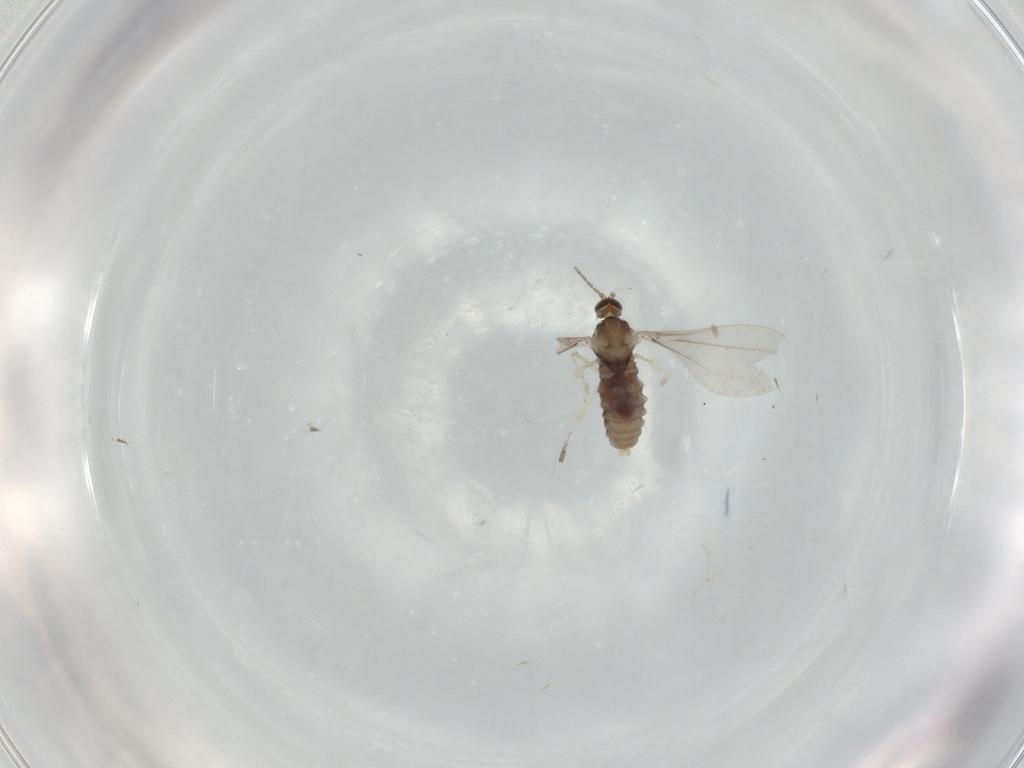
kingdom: Animalia
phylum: Arthropoda
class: Insecta
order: Diptera
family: Cecidomyiidae
